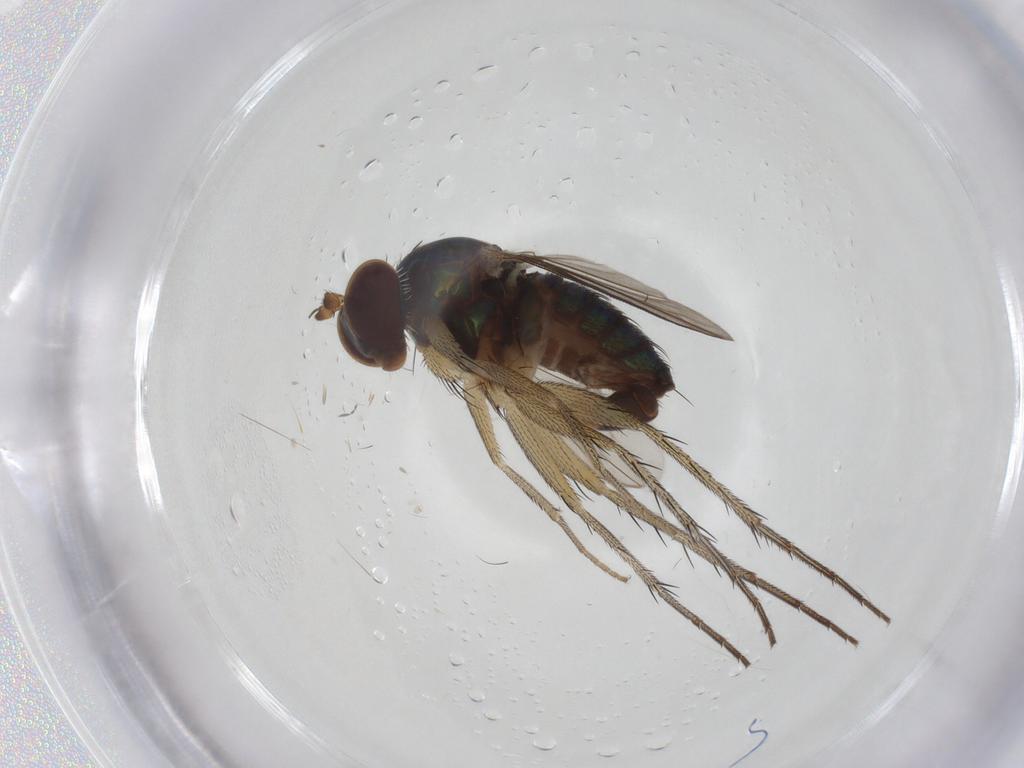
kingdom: Animalia
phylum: Arthropoda
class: Insecta
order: Diptera
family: Dolichopodidae
